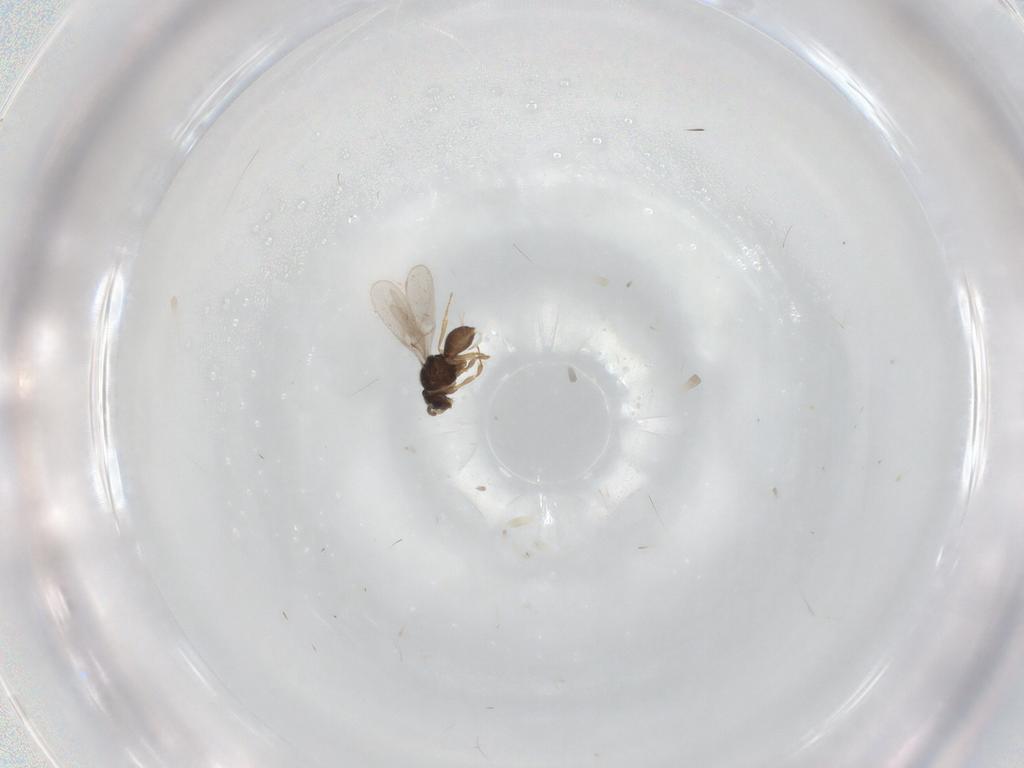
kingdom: Animalia
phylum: Arthropoda
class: Insecta
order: Hymenoptera
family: Scelionidae
